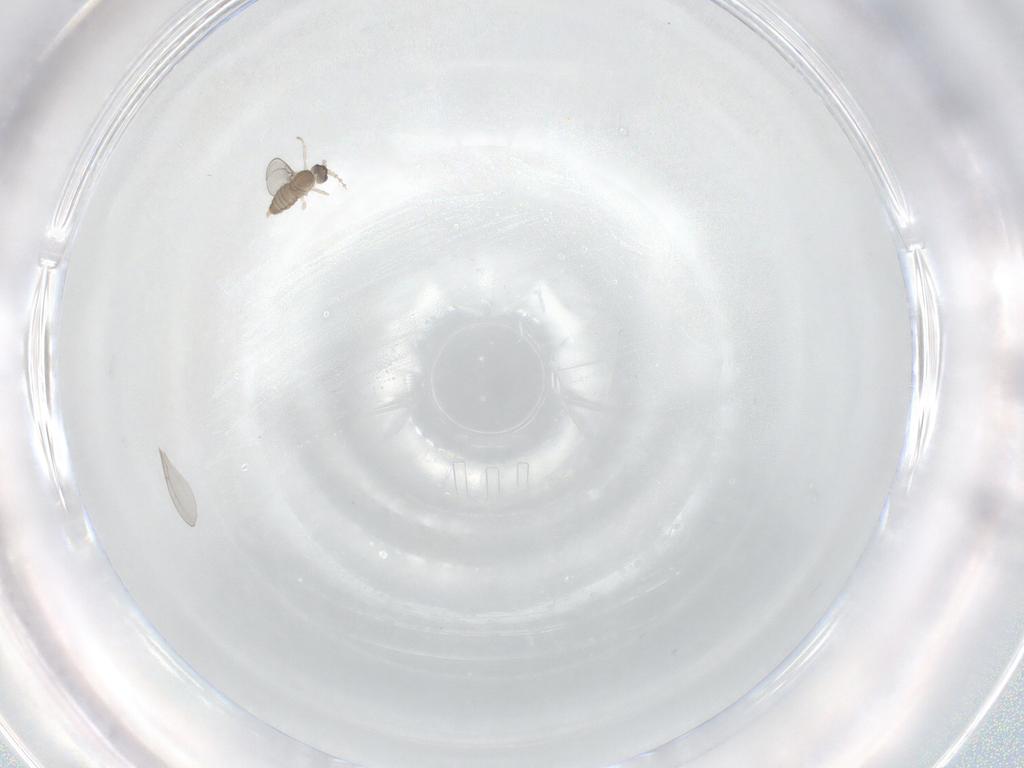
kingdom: Animalia
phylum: Arthropoda
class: Insecta
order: Diptera
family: Cecidomyiidae
